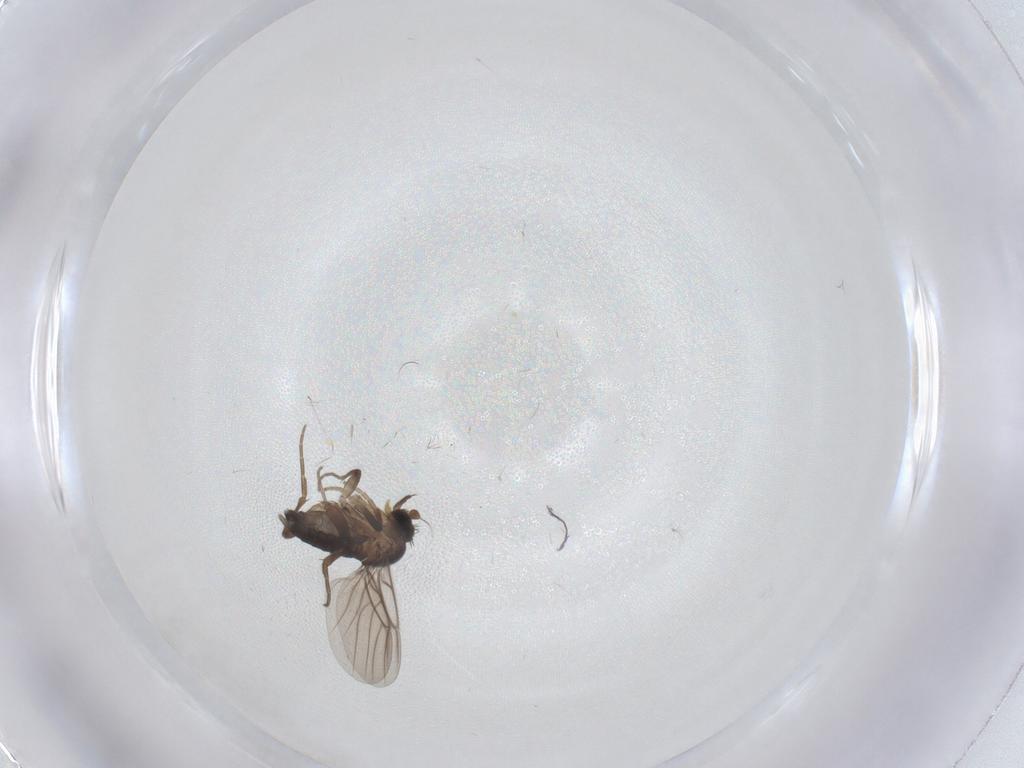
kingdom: Animalia
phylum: Arthropoda
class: Insecta
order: Diptera
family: Phoridae
